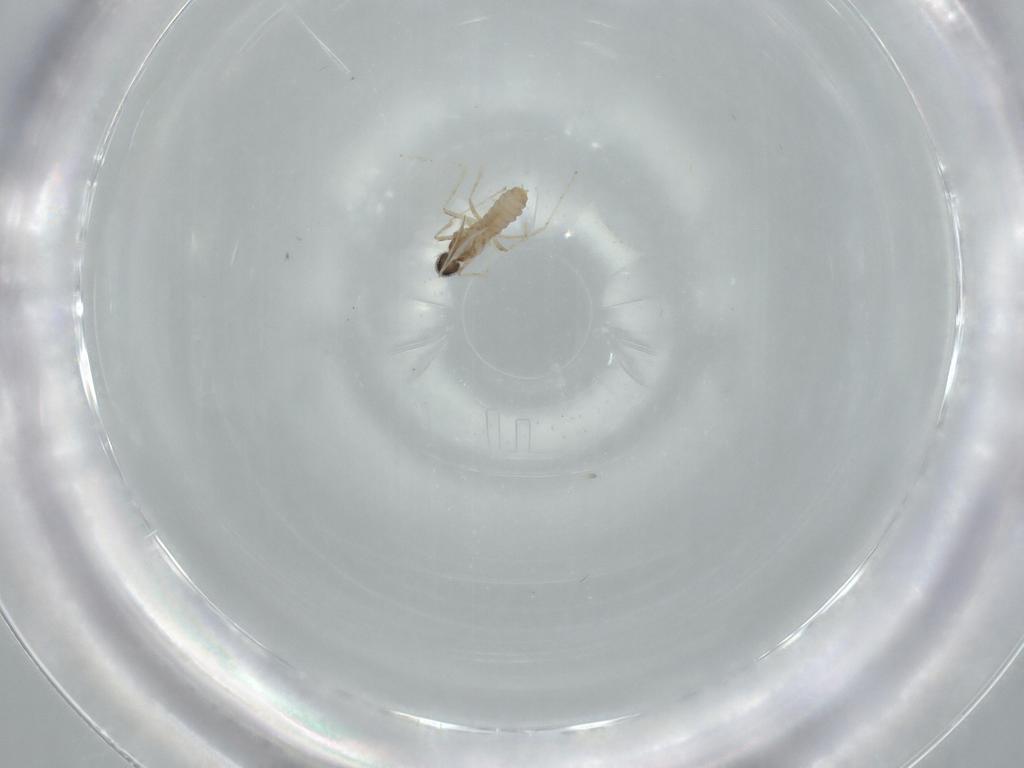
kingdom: Animalia
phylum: Arthropoda
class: Insecta
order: Diptera
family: Cecidomyiidae
